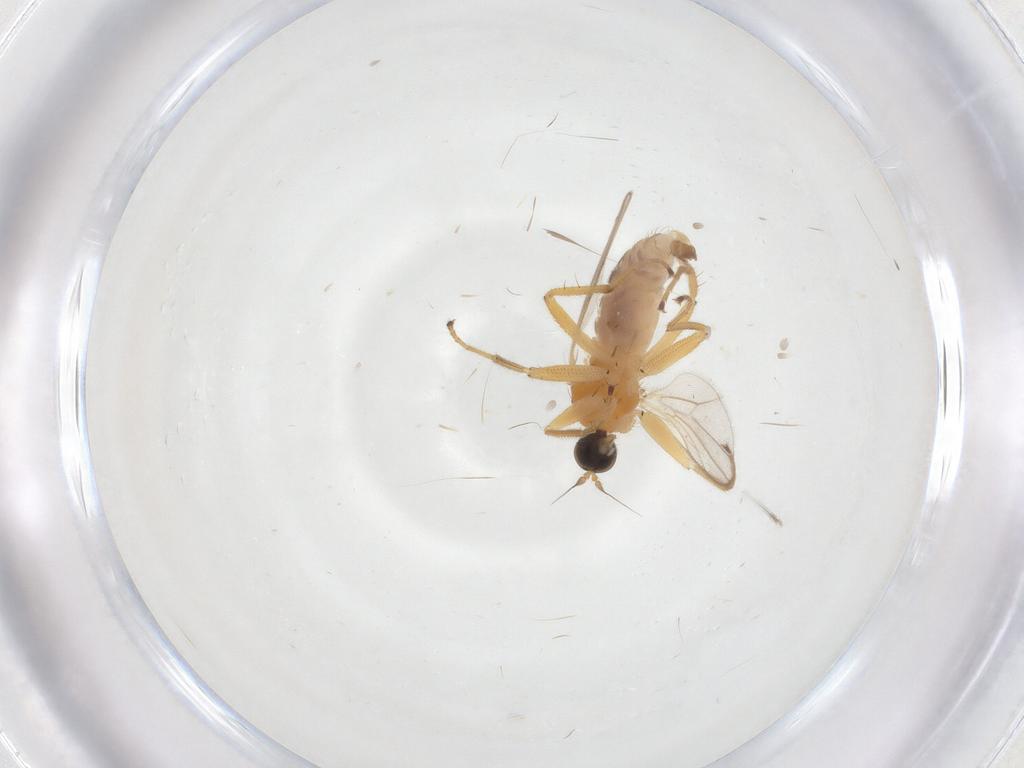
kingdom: Animalia
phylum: Arthropoda
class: Insecta
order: Diptera
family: Hybotidae
